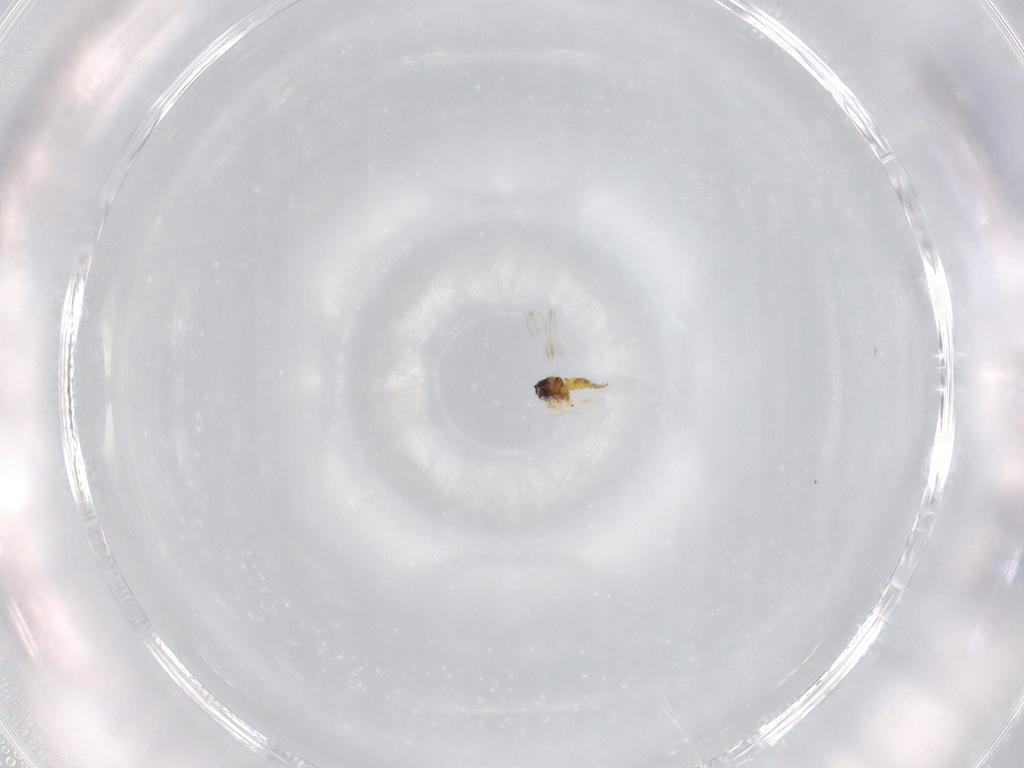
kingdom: Animalia
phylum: Arthropoda
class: Insecta
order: Hemiptera
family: Aleyrodidae
